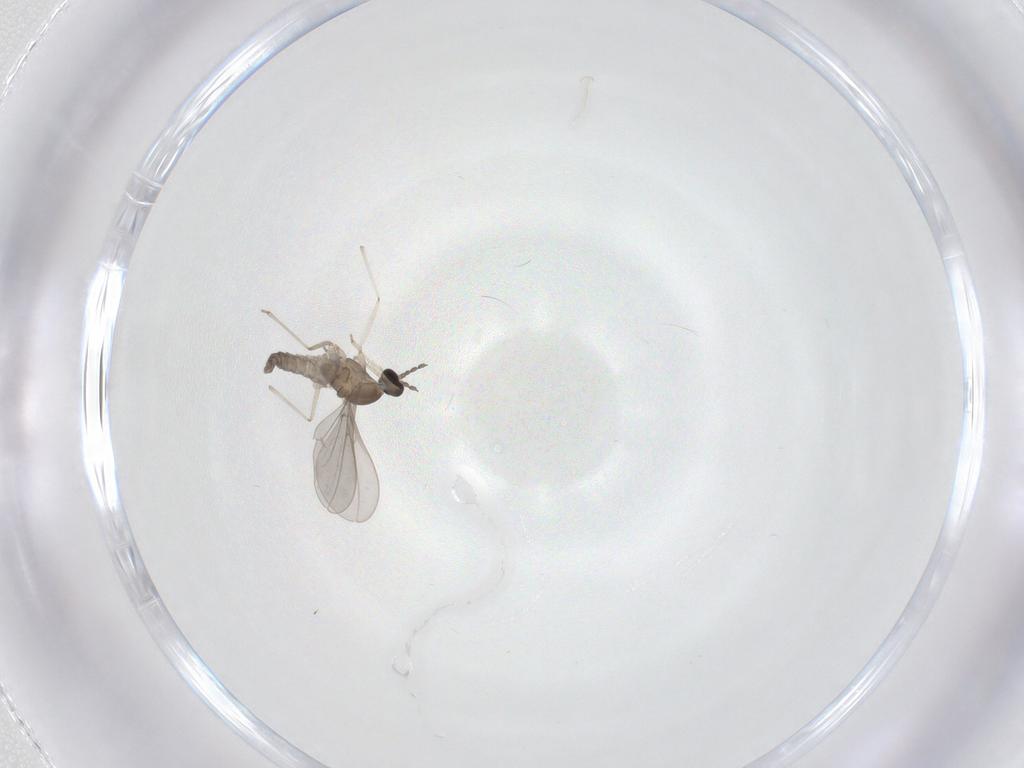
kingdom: Animalia
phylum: Arthropoda
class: Insecta
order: Diptera
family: Cecidomyiidae
